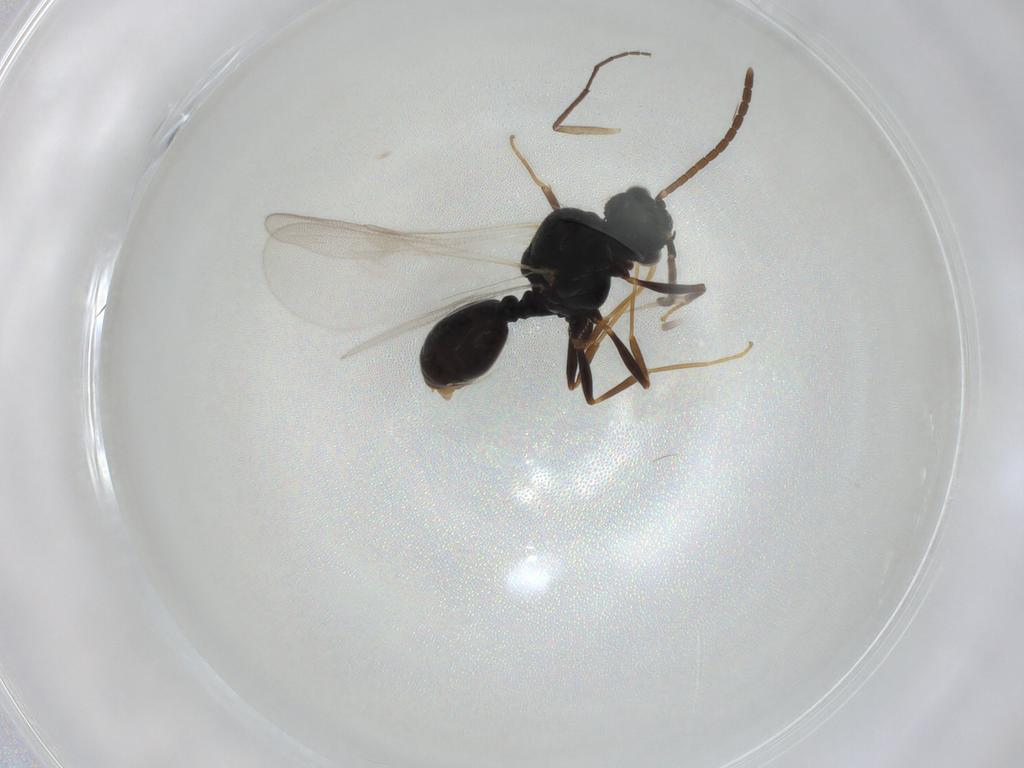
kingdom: Animalia
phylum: Arthropoda
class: Insecta
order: Hymenoptera
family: Formicidae
